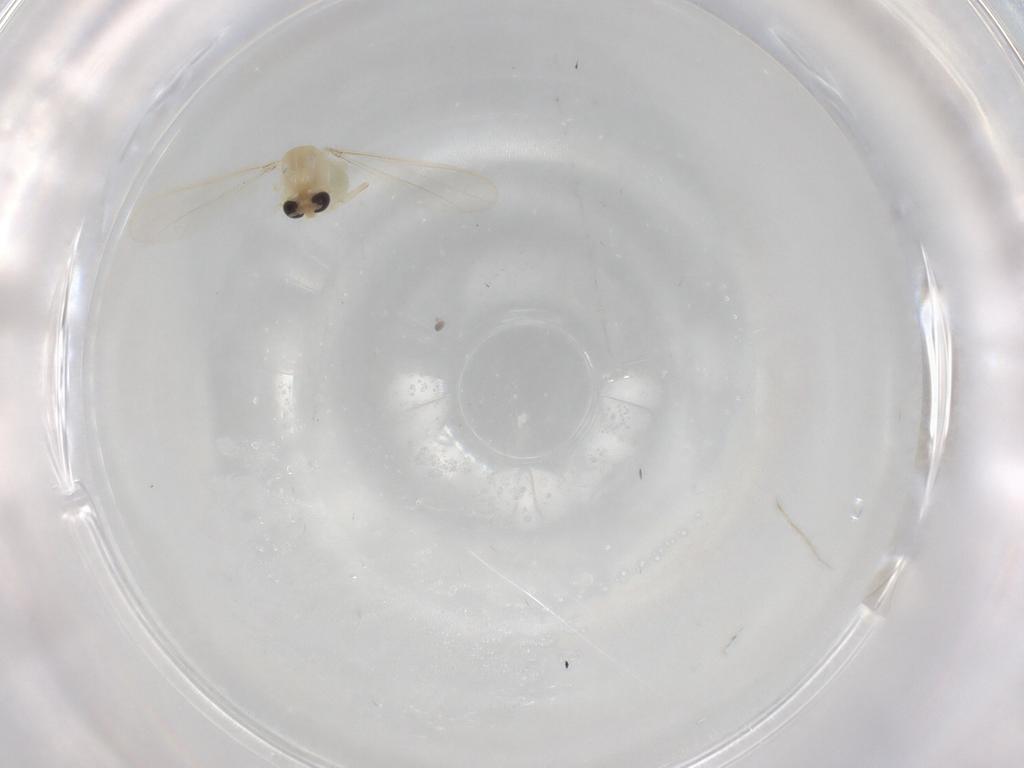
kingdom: Animalia
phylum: Arthropoda
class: Insecta
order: Diptera
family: Chironomidae
